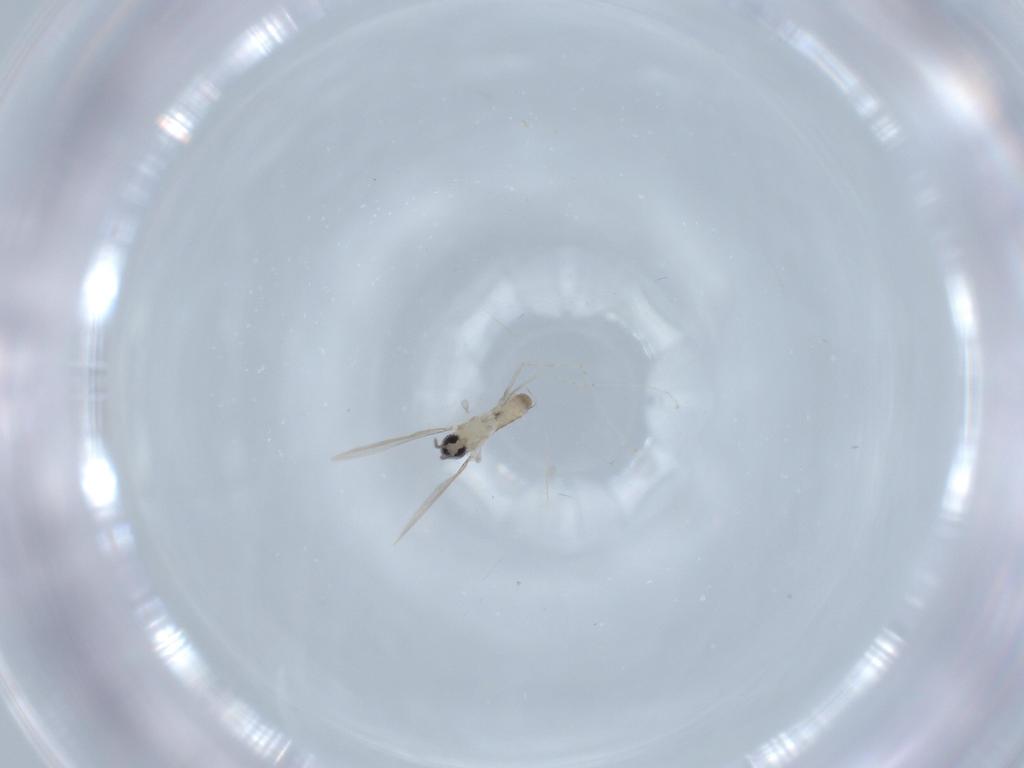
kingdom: Animalia
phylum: Arthropoda
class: Insecta
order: Diptera
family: Cecidomyiidae
